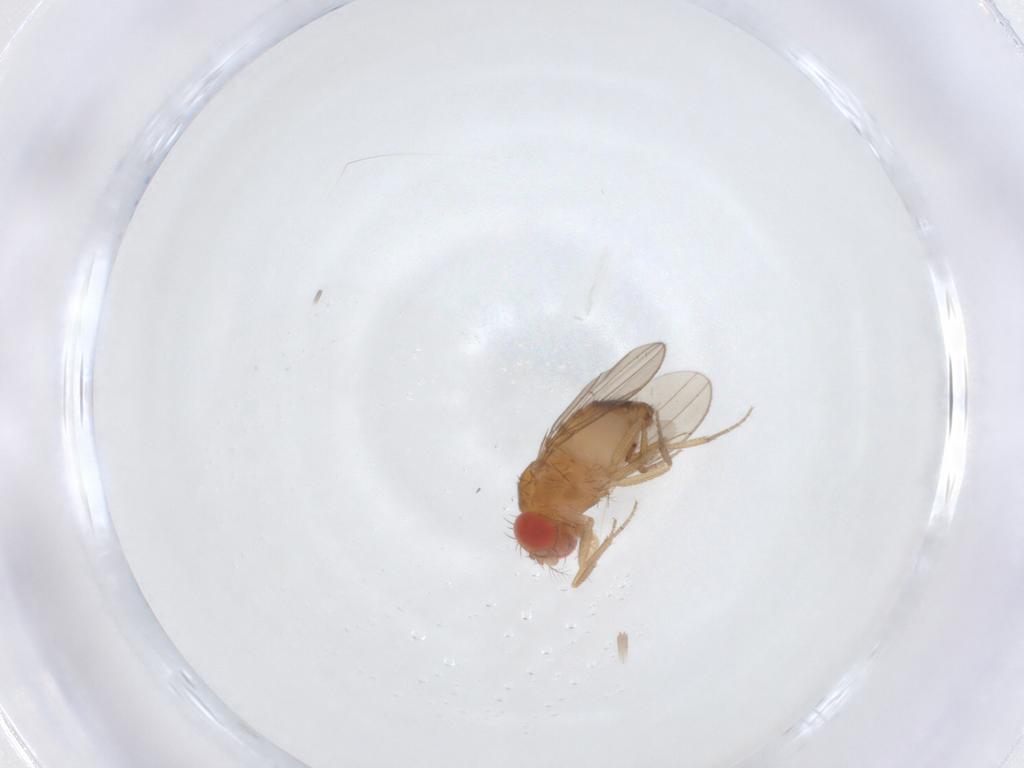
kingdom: Animalia
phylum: Arthropoda
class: Insecta
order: Diptera
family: Drosophilidae
